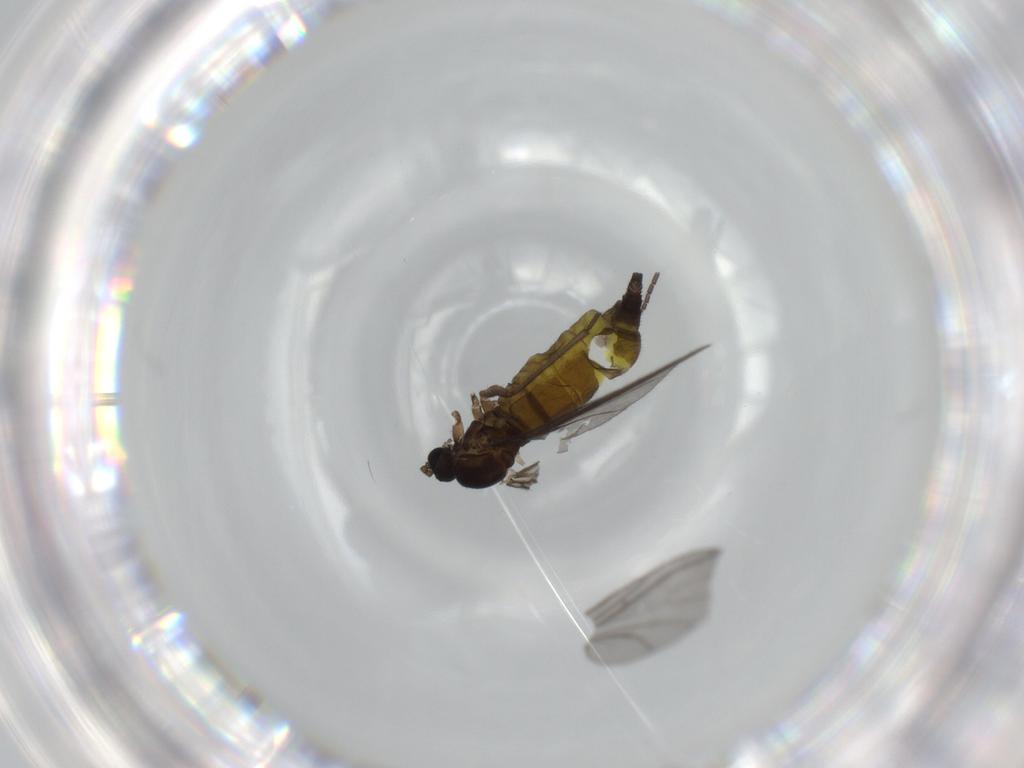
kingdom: Animalia
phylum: Arthropoda
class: Insecta
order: Diptera
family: Sciaridae
